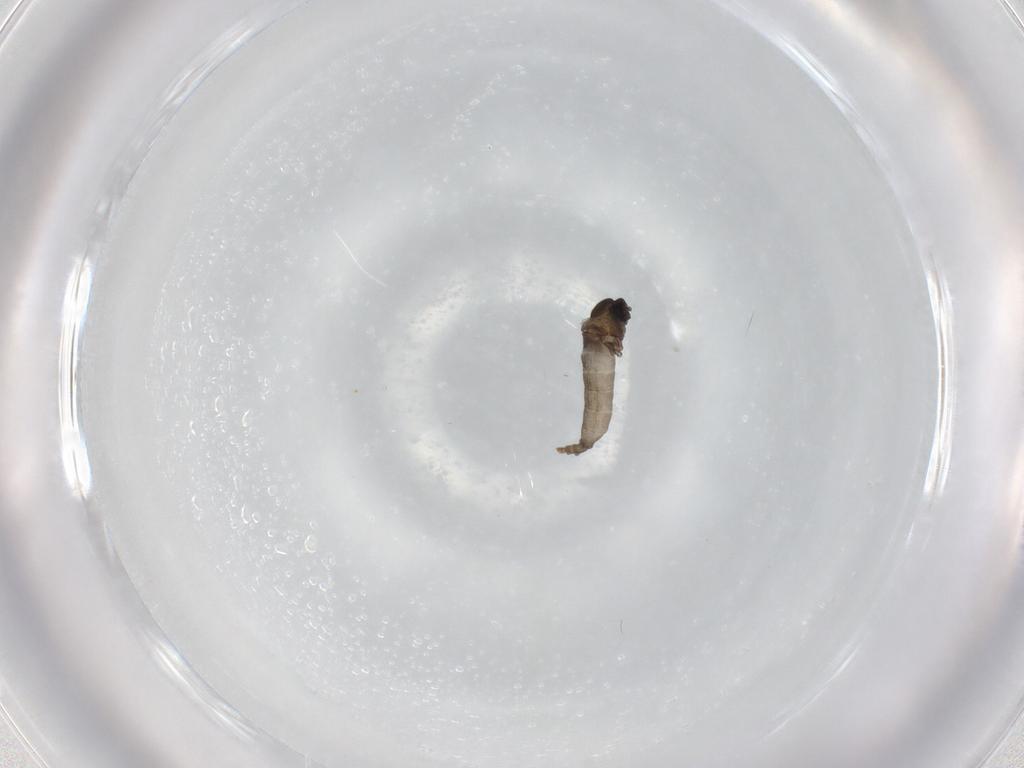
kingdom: Animalia
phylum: Arthropoda
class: Insecta
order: Diptera
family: Cecidomyiidae
